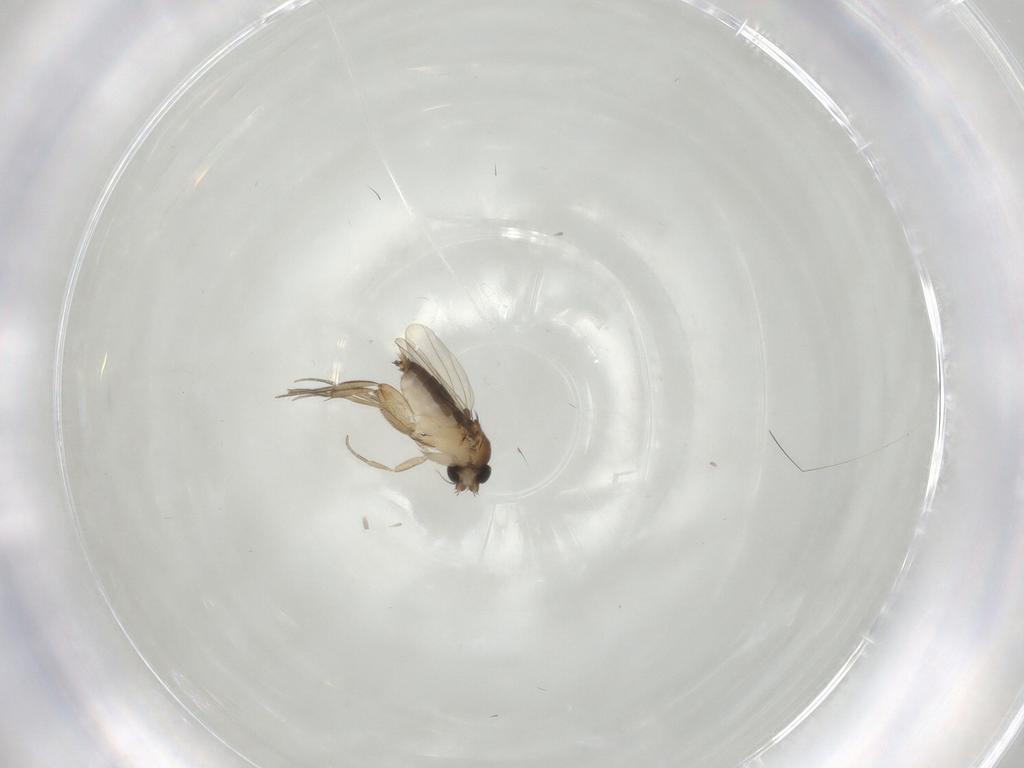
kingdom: Animalia
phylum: Arthropoda
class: Insecta
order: Diptera
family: Phoridae
